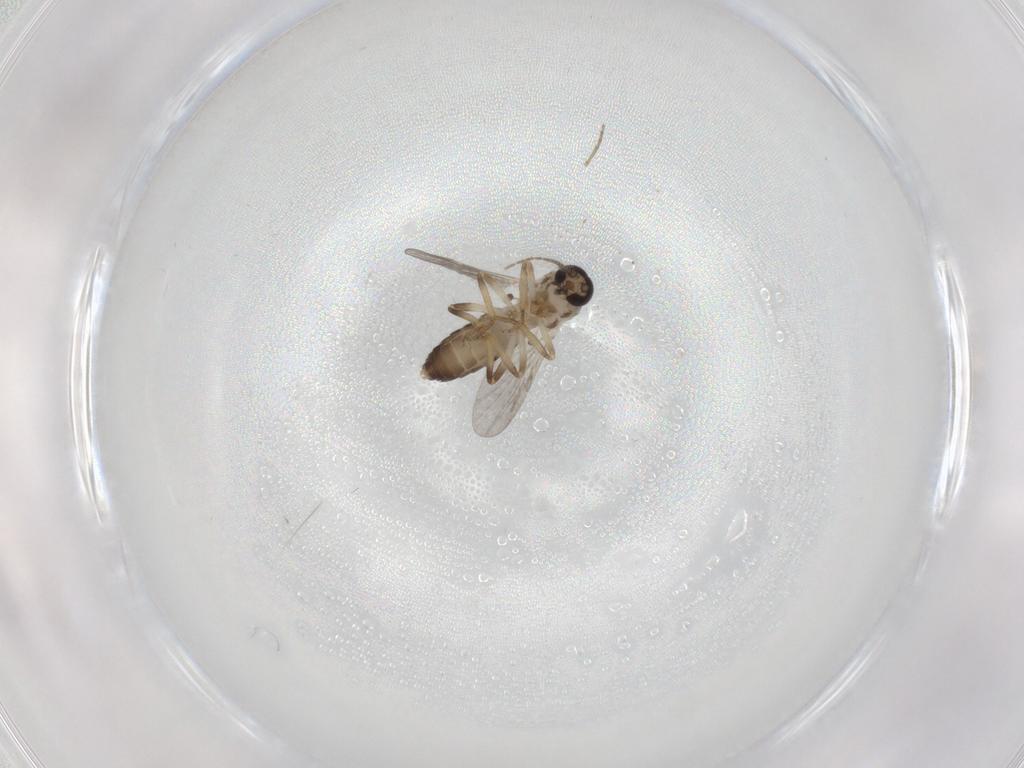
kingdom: Animalia
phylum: Arthropoda
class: Insecta
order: Diptera
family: Ceratopogonidae
